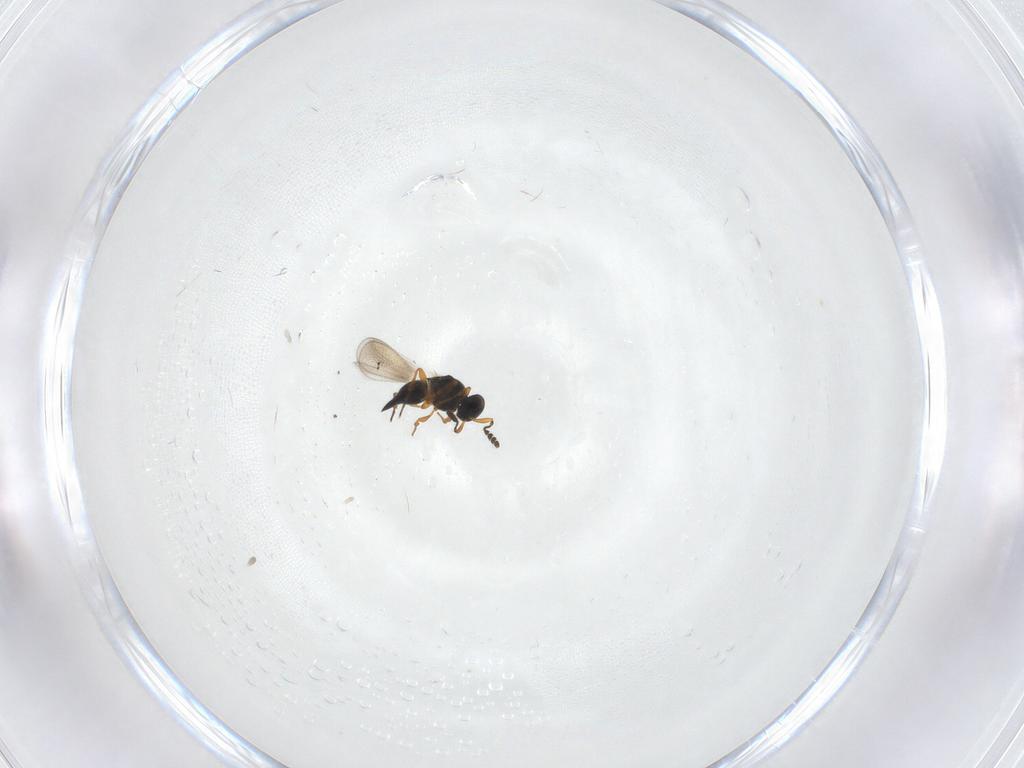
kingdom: Animalia
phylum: Arthropoda
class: Insecta
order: Hymenoptera
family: Platygastridae
